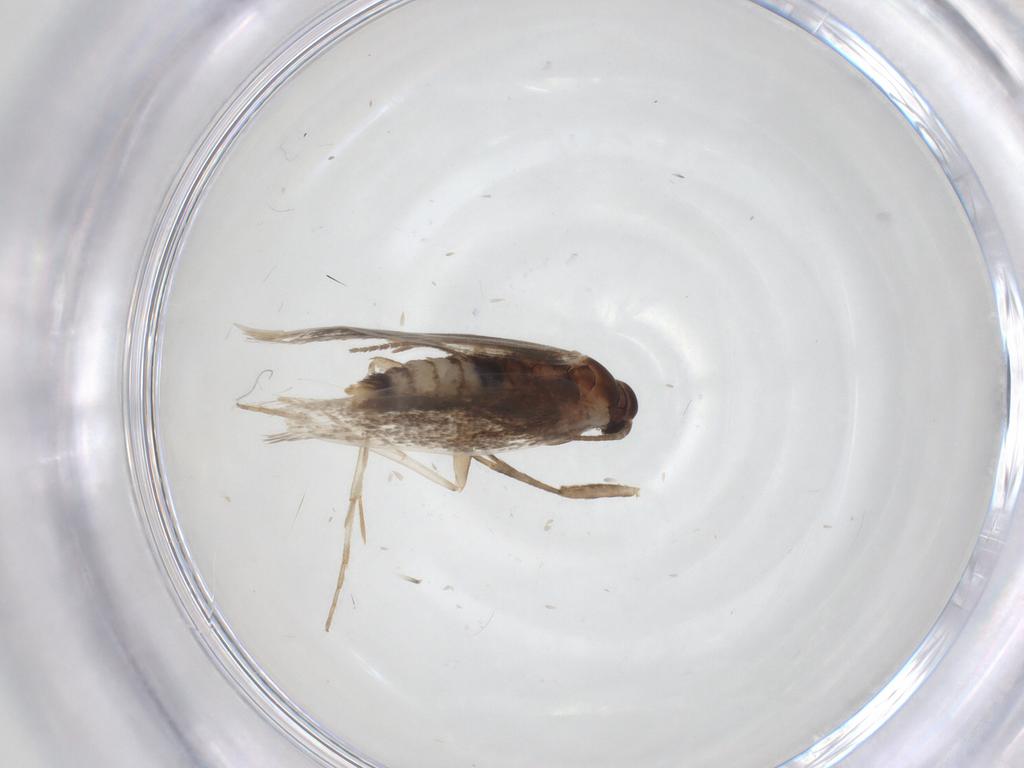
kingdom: Animalia
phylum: Arthropoda
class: Insecta
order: Lepidoptera
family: Elachistidae
